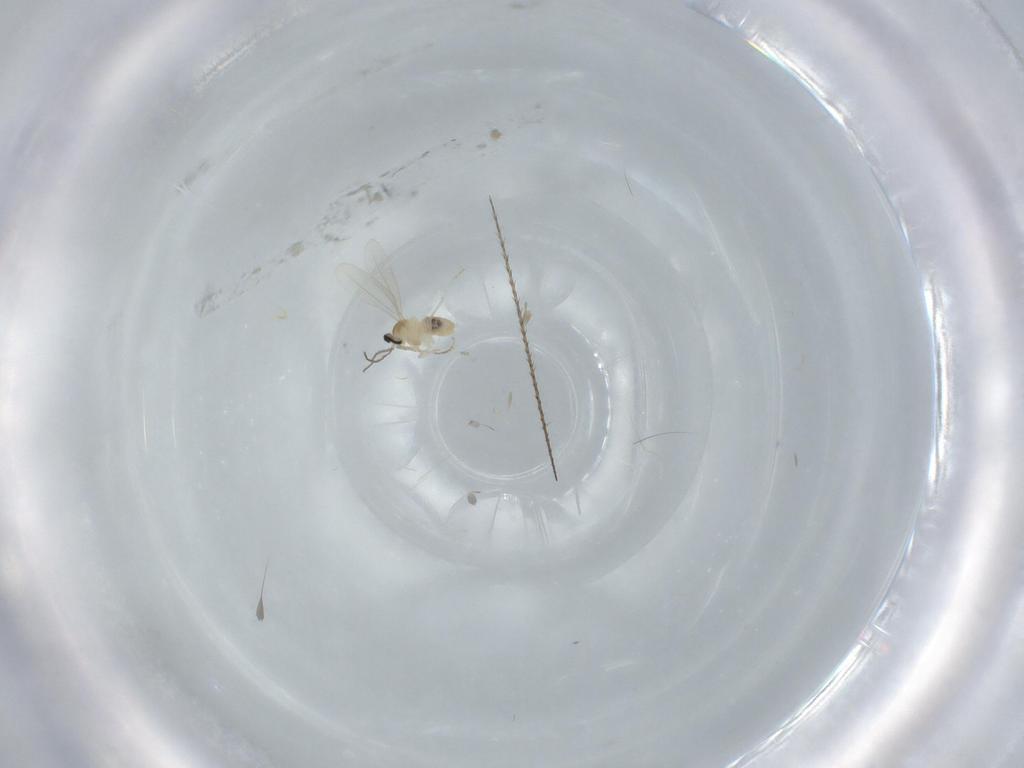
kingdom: Animalia
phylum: Arthropoda
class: Insecta
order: Diptera
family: Cecidomyiidae
